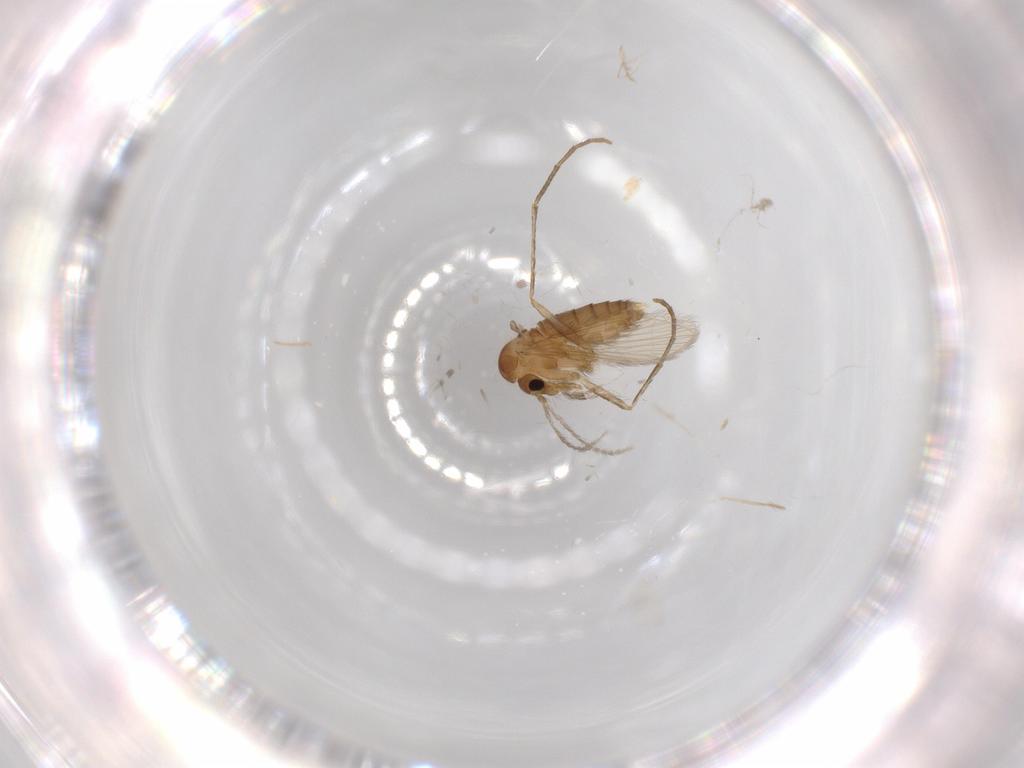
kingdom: Animalia
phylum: Arthropoda
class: Insecta
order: Diptera
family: Psychodidae
